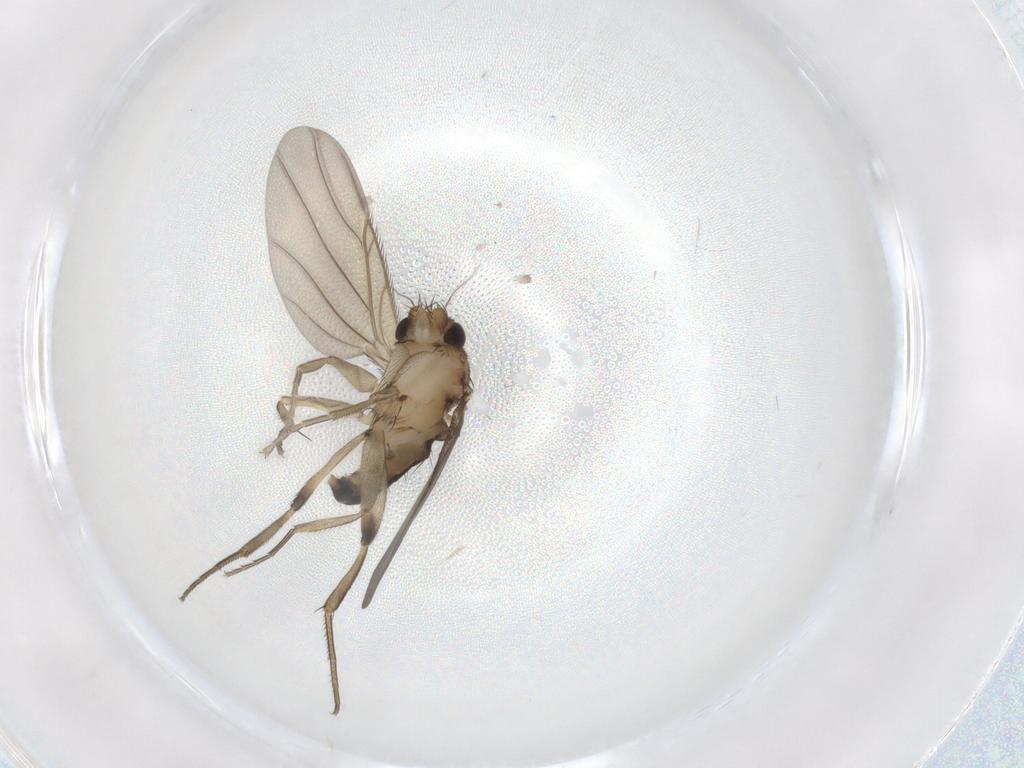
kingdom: Animalia
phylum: Arthropoda
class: Insecta
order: Diptera
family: Phoridae
